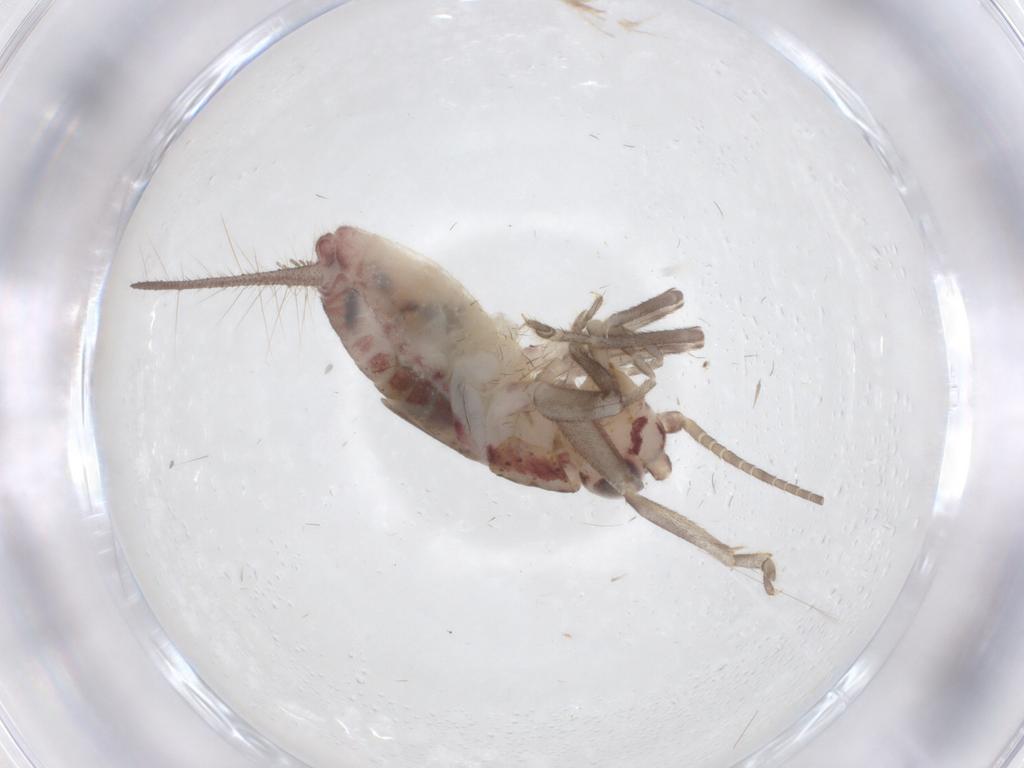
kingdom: Animalia
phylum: Arthropoda
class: Insecta
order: Orthoptera
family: Trigonidiidae
